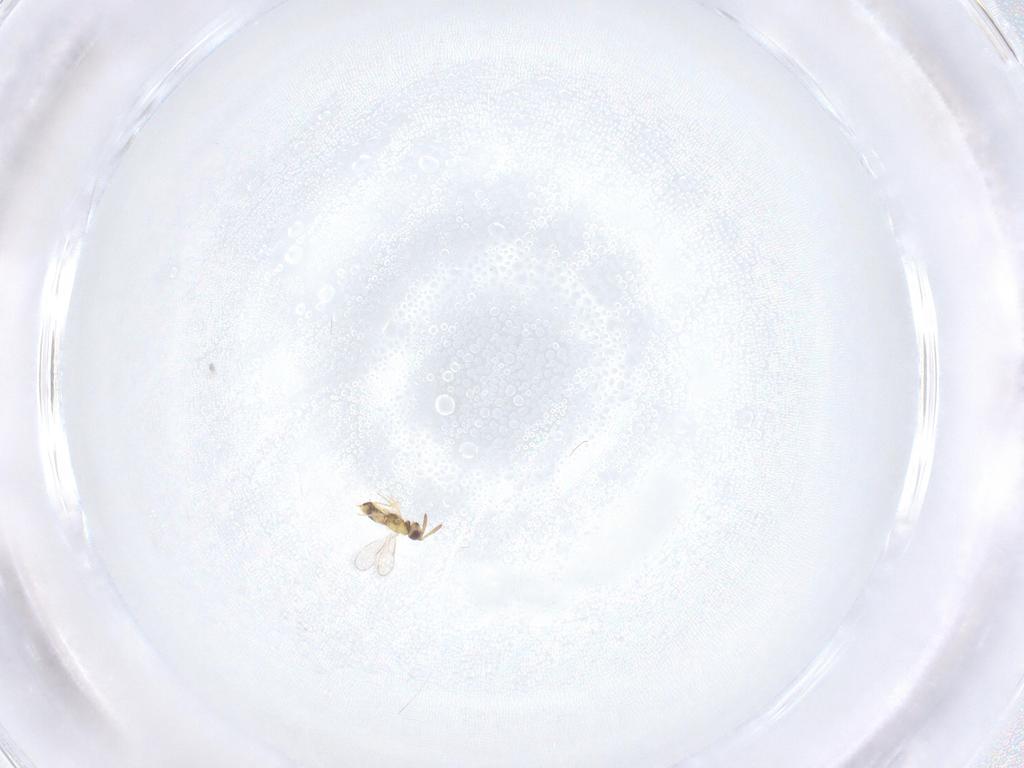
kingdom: Animalia
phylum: Arthropoda
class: Insecta
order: Hymenoptera
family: Aphelinidae
